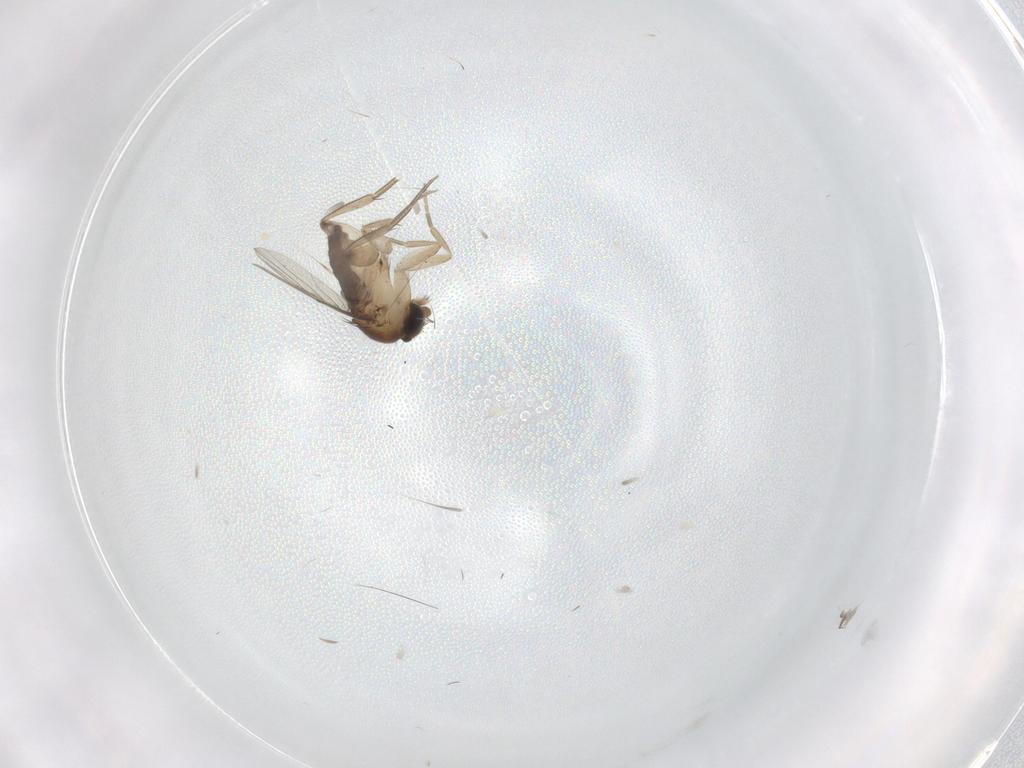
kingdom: Animalia
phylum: Arthropoda
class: Insecta
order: Diptera
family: Phoridae
